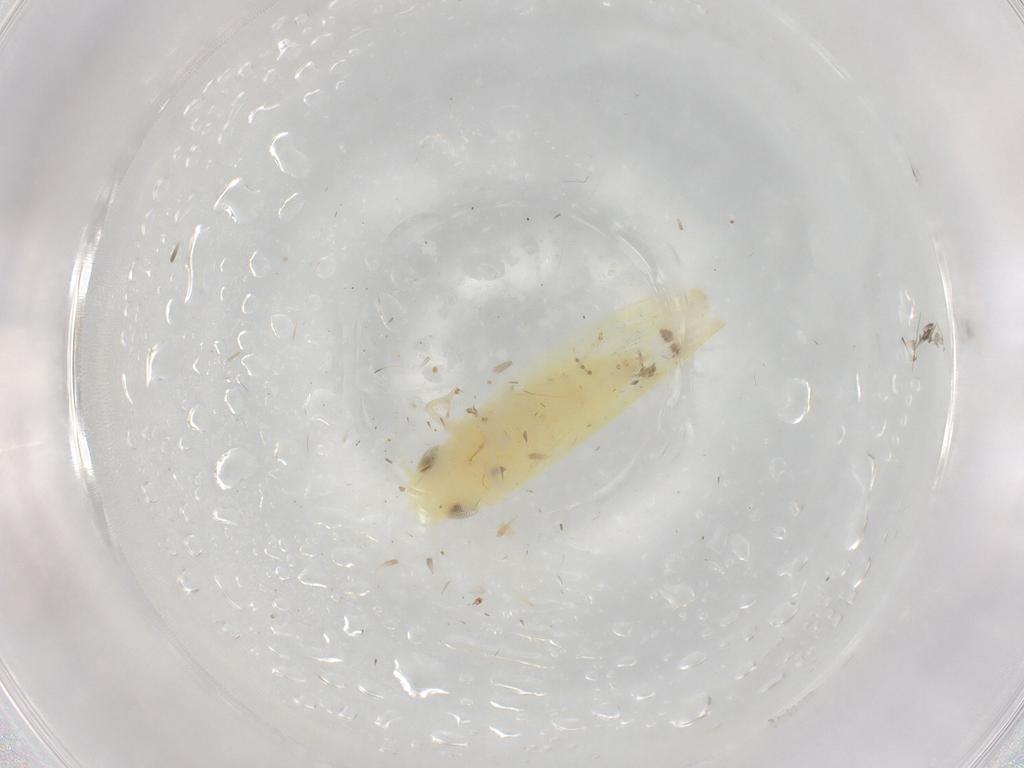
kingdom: Animalia
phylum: Arthropoda
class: Insecta
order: Hemiptera
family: Cicadellidae
